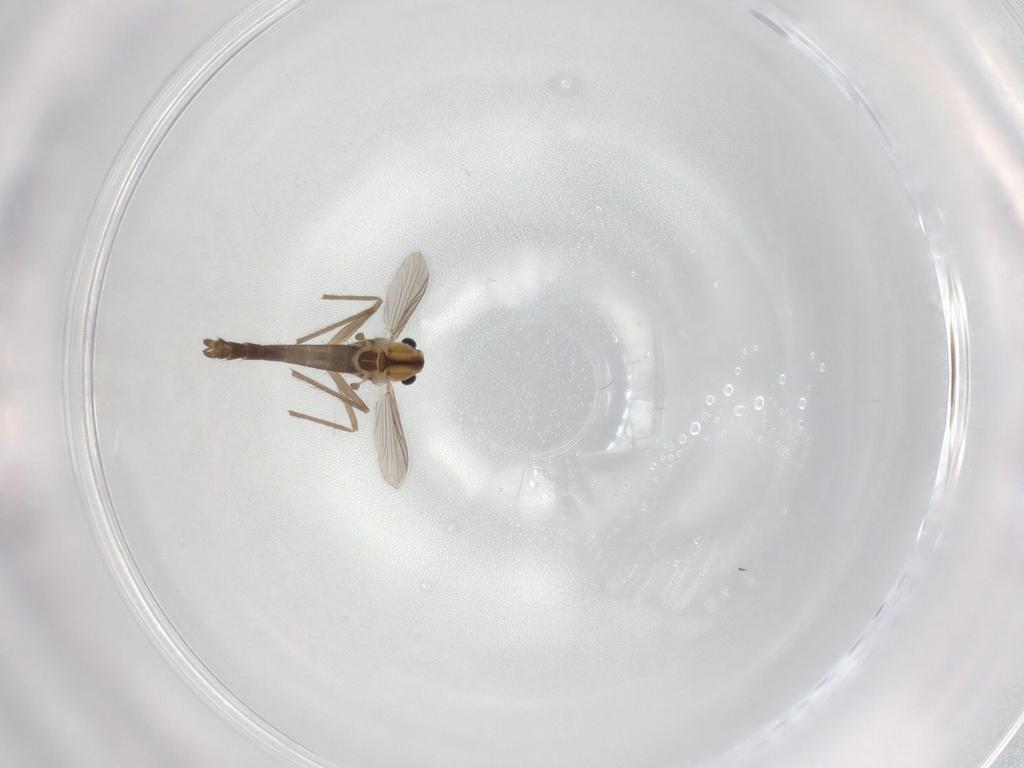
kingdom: Animalia
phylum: Arthropoda
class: Insecta
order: Diptera
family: Chironomidae
